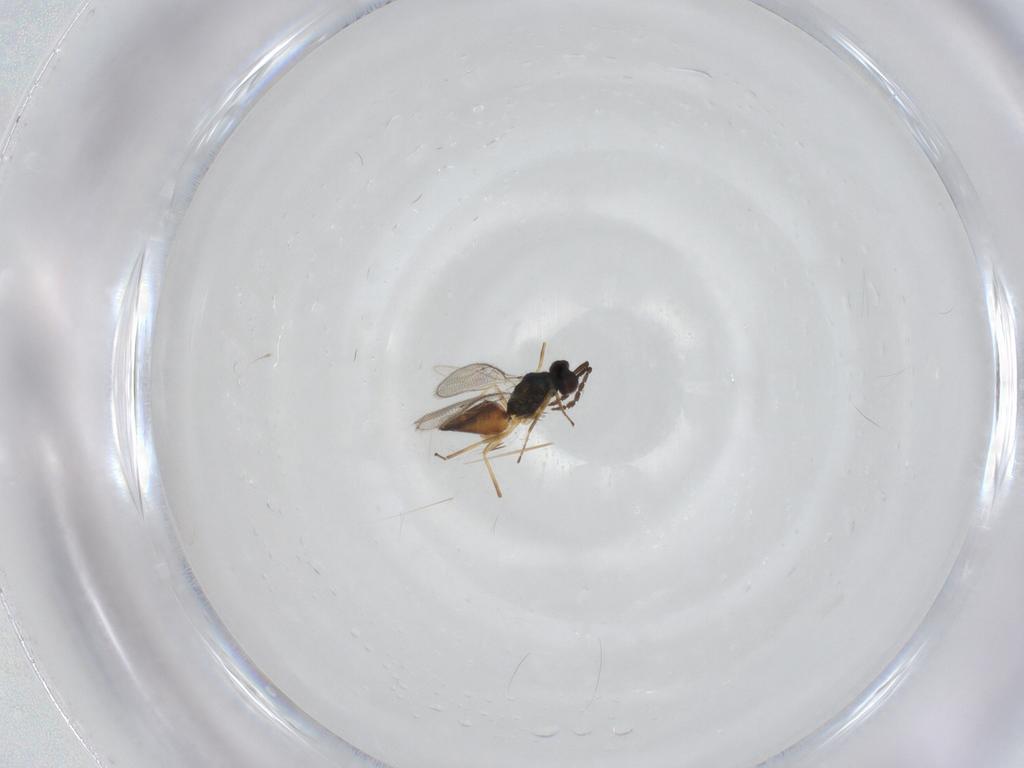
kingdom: Animalia
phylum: Arthropoda
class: Insecta
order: Hymenoptera
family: Eulophidae
